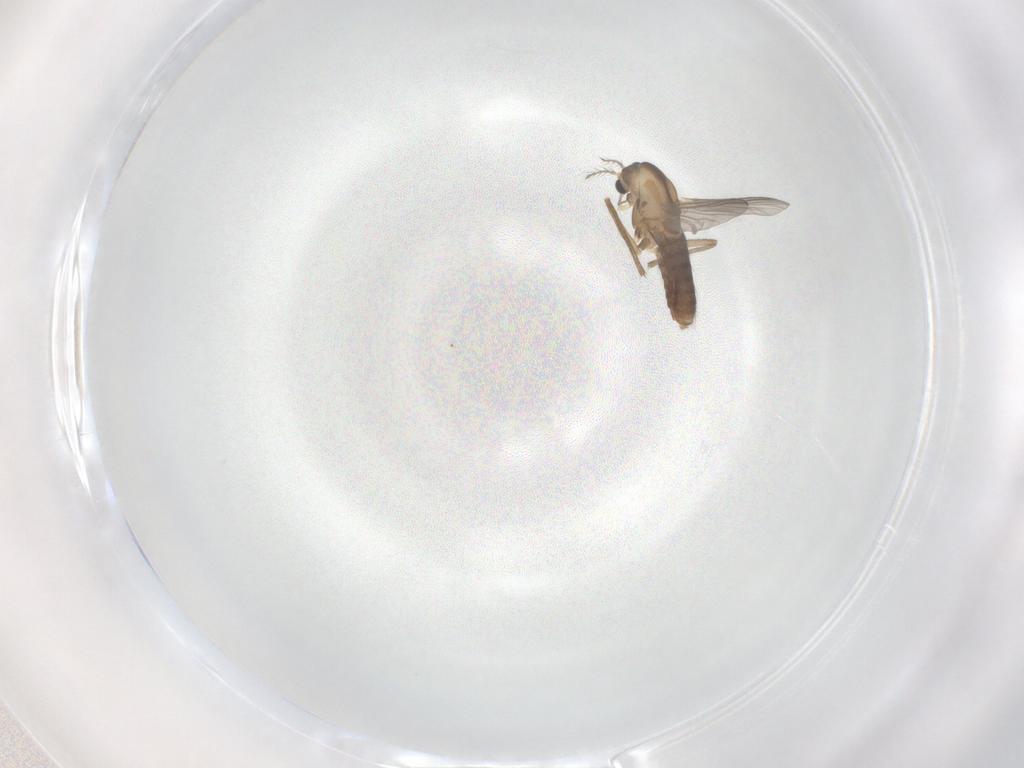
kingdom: Animalia
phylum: Arthropoda
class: Insecta
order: Diptera
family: Chironomidae
